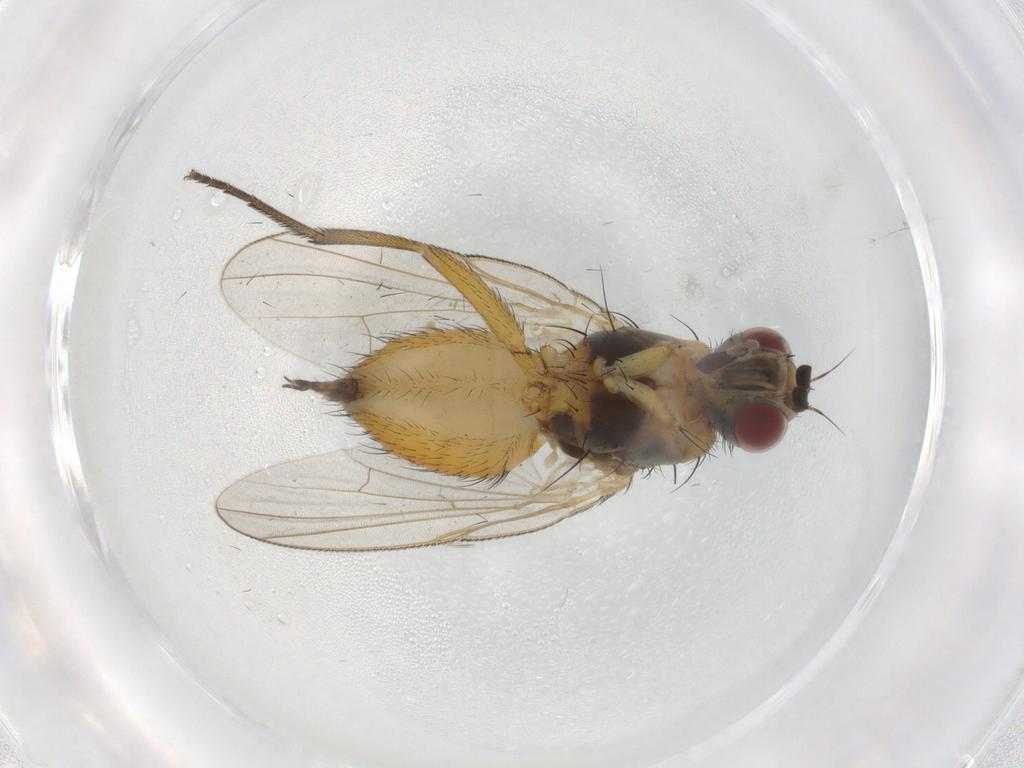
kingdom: Animalia
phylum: Arthropoda
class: Insecta
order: Diptera
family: Muscidae
